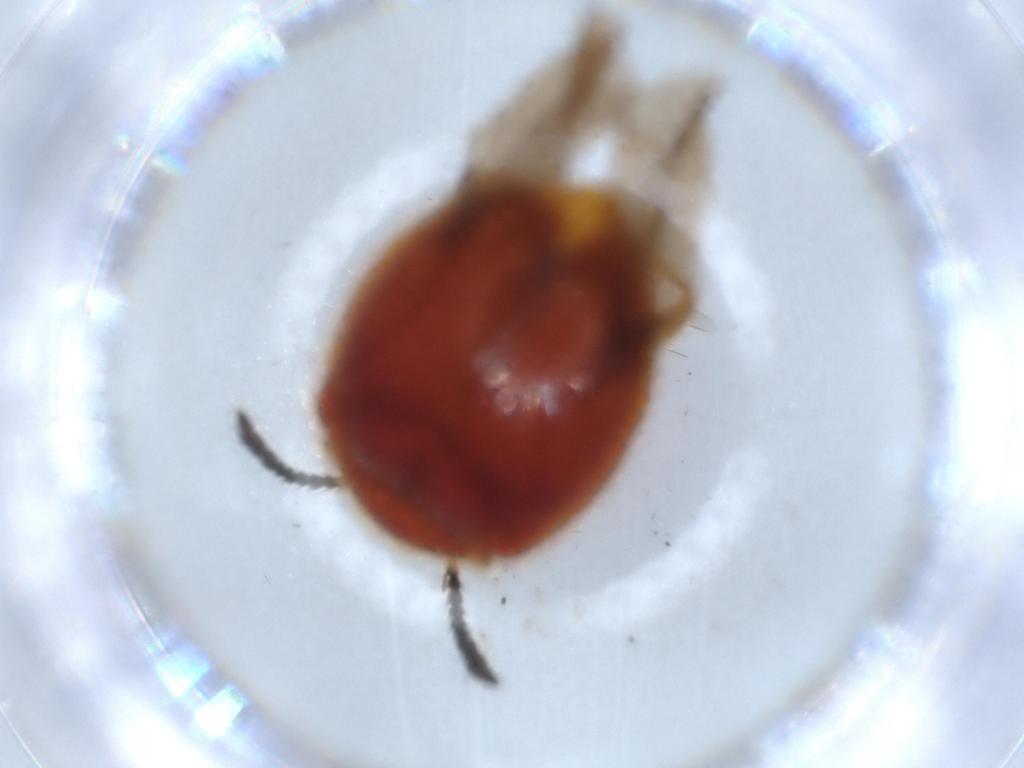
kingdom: Animalia
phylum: Arthropoda
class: Insecta
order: Coleoptera
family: Endomychidae
